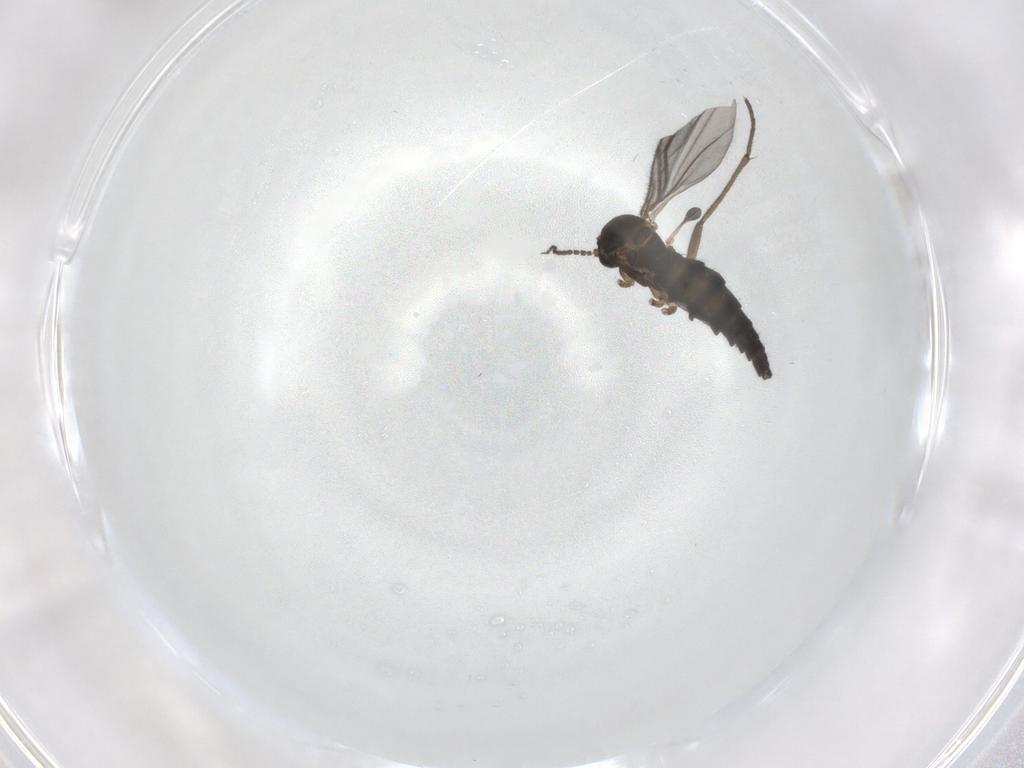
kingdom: Animalia
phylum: Arthropoda
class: Insecta
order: Diptera
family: Sciaridae
